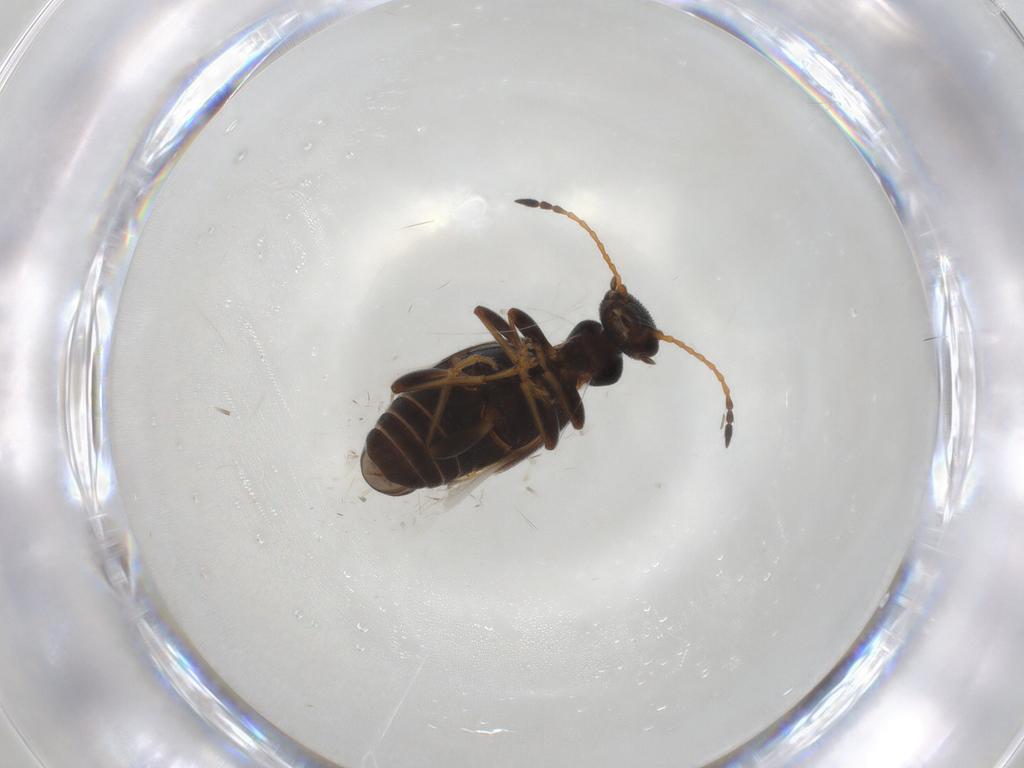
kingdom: Animalia
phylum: Arthropoda
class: Insecta
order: Coleoptera
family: Anthicidae
